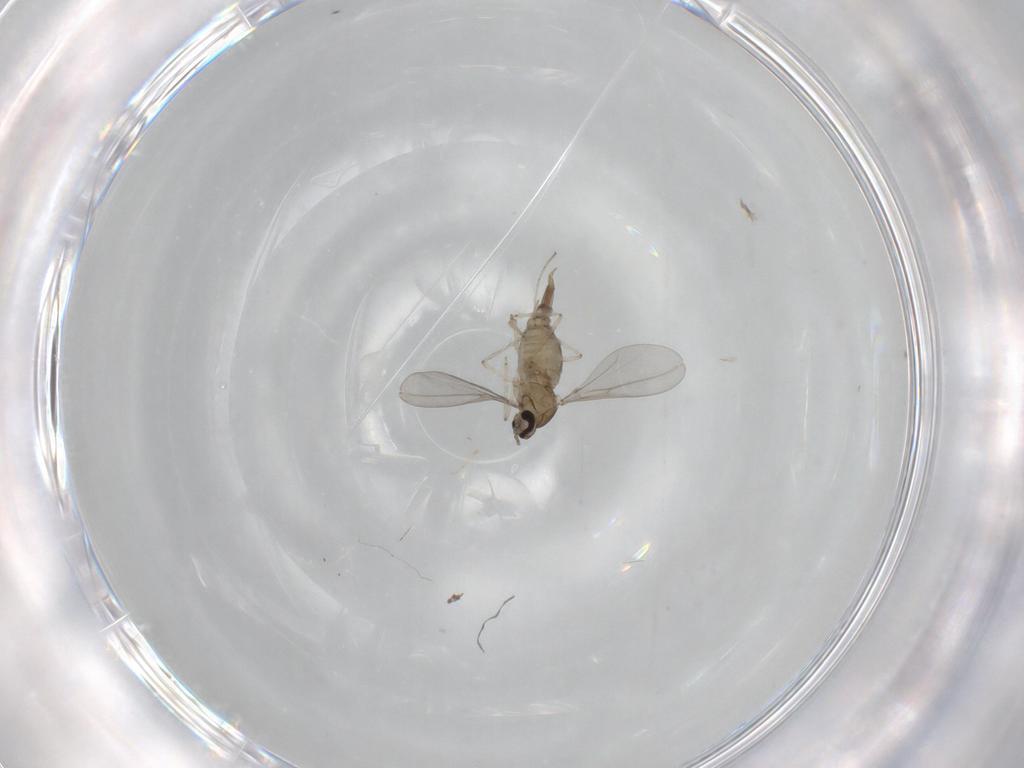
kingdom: Animalia
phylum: Arthropoda
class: Insecta
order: Diptera
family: Cecidomyiidae
